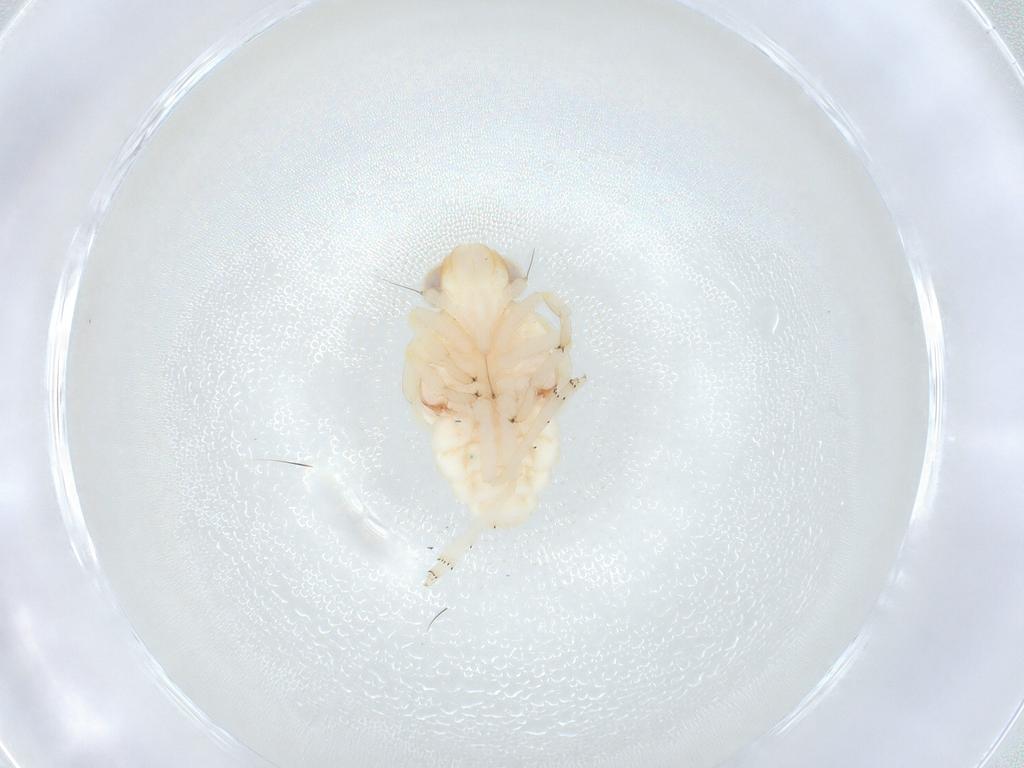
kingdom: Animalia
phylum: Arthropoda
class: Insecta
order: Hemiptera
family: Nogodinidae
